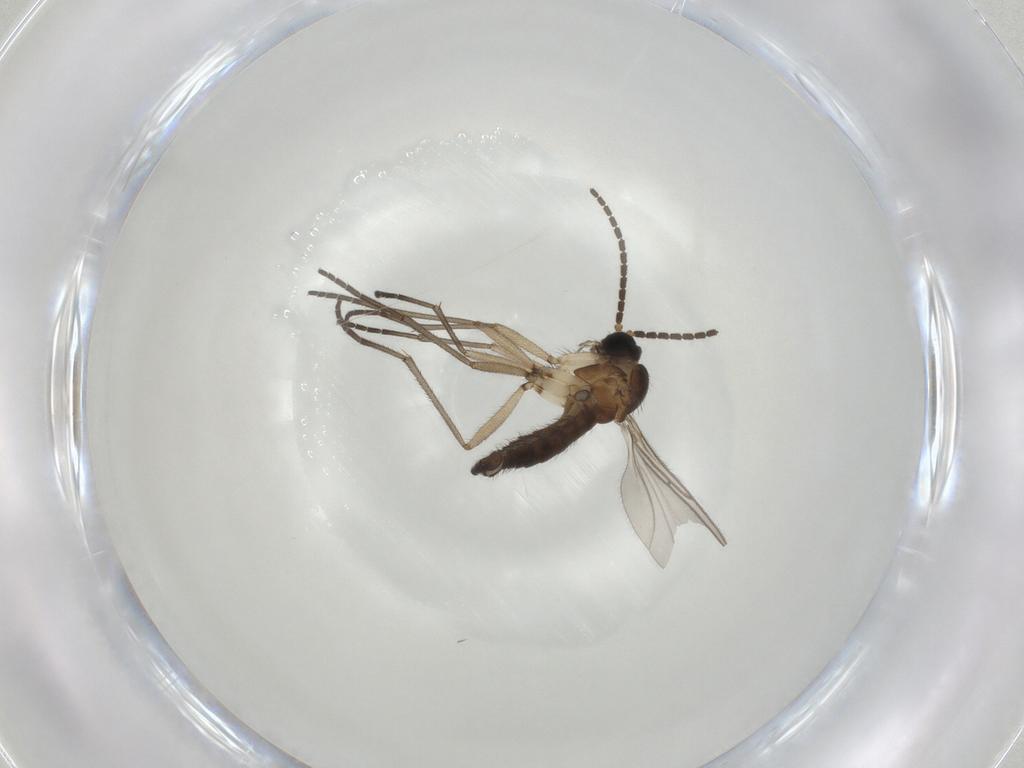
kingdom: Animalia
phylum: Arthropoda
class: Insecta
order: Diptera
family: Sciaridae
